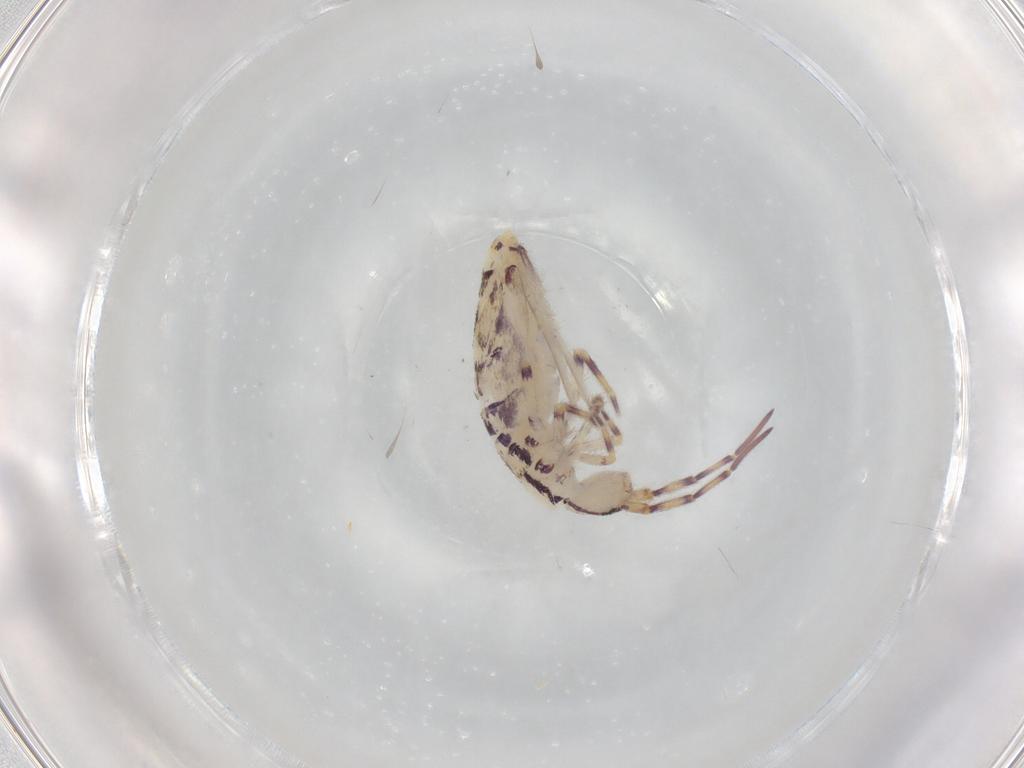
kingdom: Animalia
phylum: Arthropoda
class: Collembola
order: Entomobryomorpha
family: Entomobryidae
